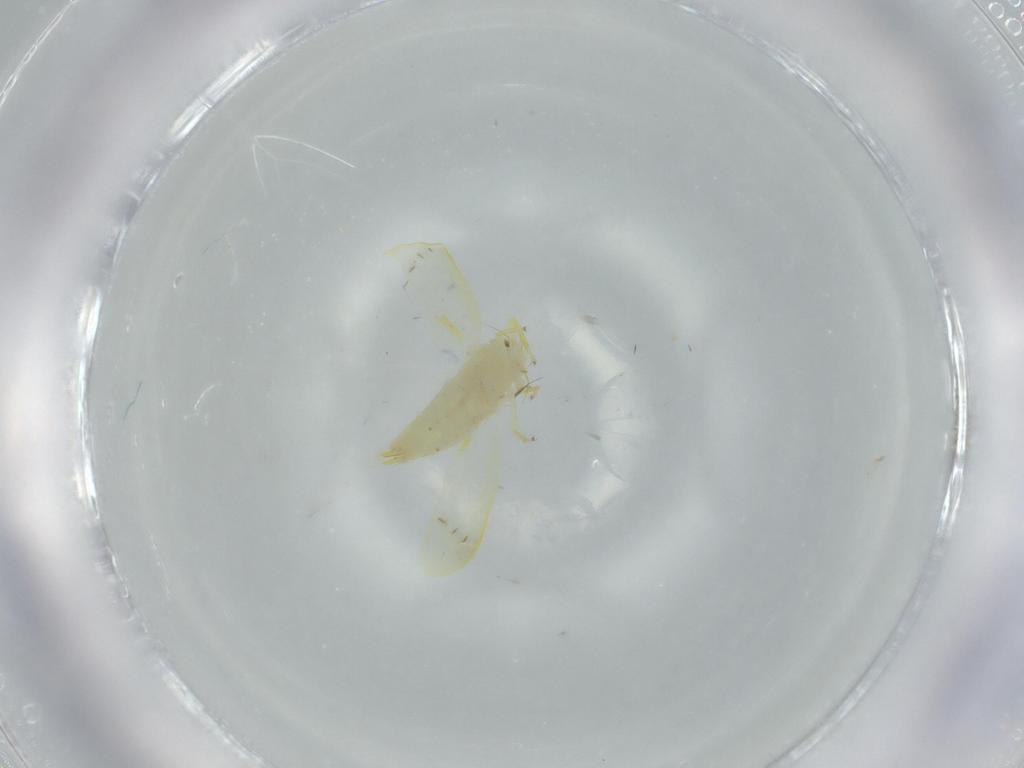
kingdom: Animalia
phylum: Arthropoda
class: Insecta
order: Hemiptera
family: Cicadellidae
